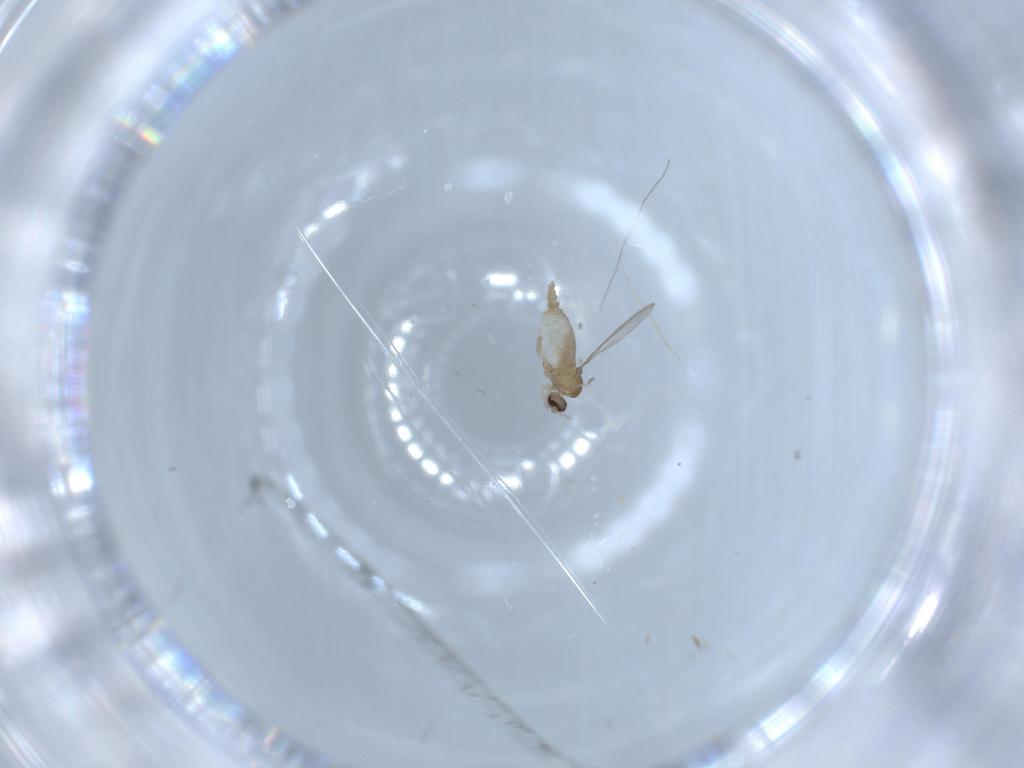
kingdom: Animalia
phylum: Arthropoda
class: Insecta
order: Diptera
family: Cecidomyiidae
